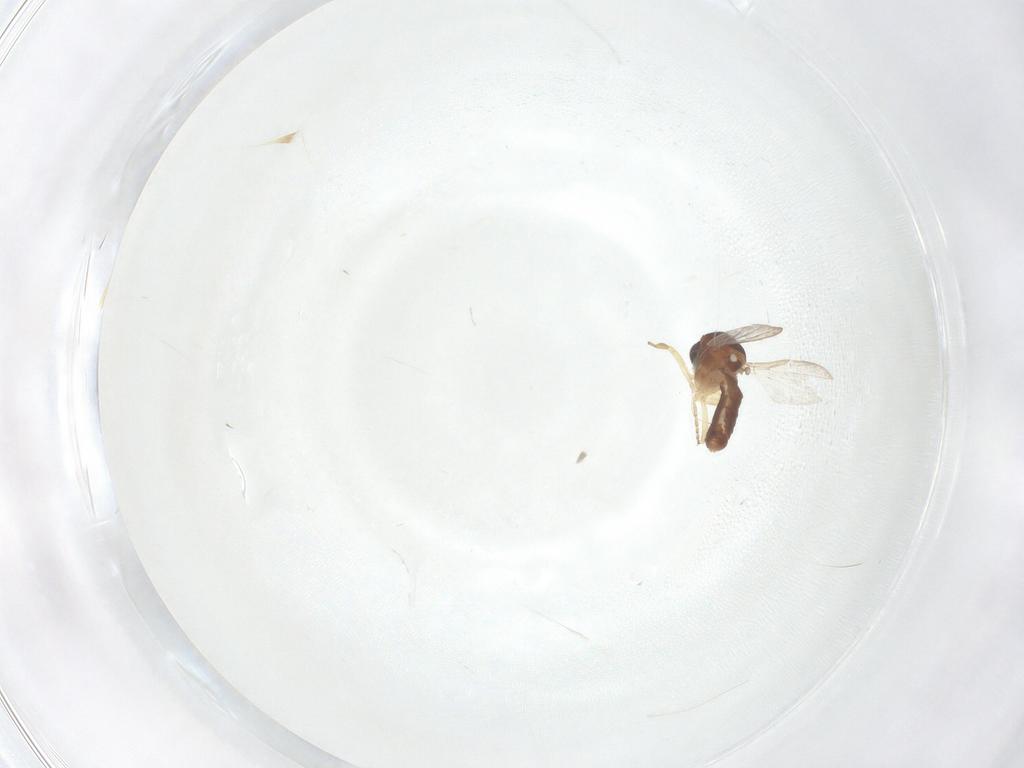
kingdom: Animalia
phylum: Arthropoda
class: Insecta
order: Diptera
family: Ceratopogonidae
